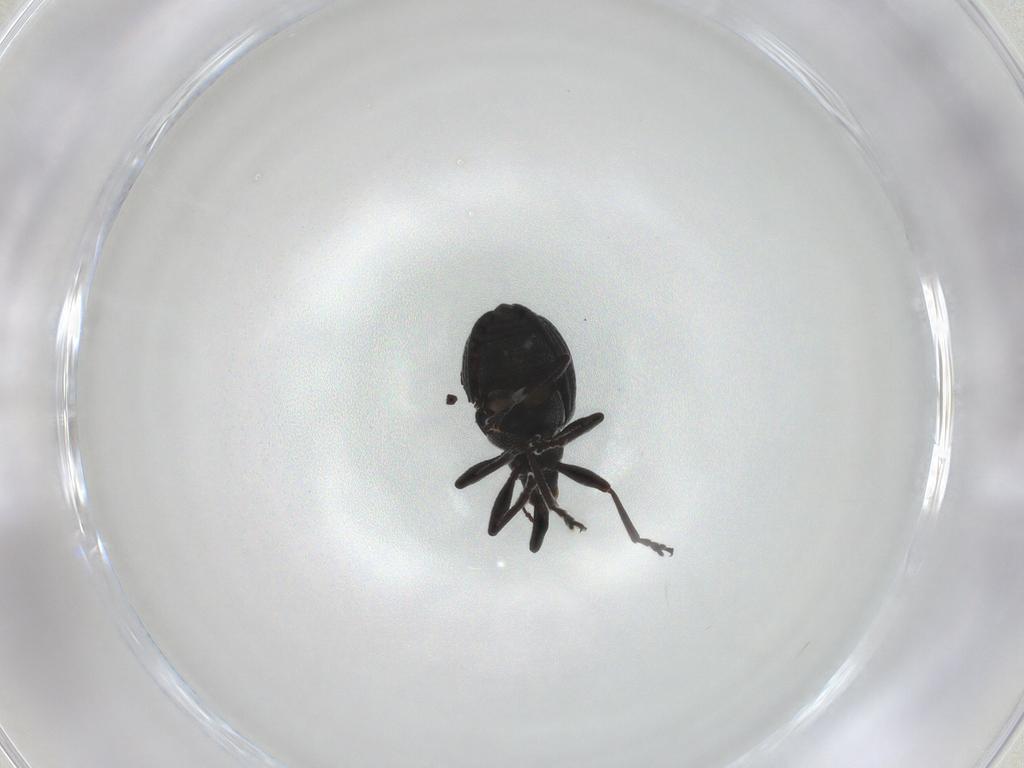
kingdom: Animalia
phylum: Arthropoda
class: Insecta
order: Coleoptera
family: Brentidae
